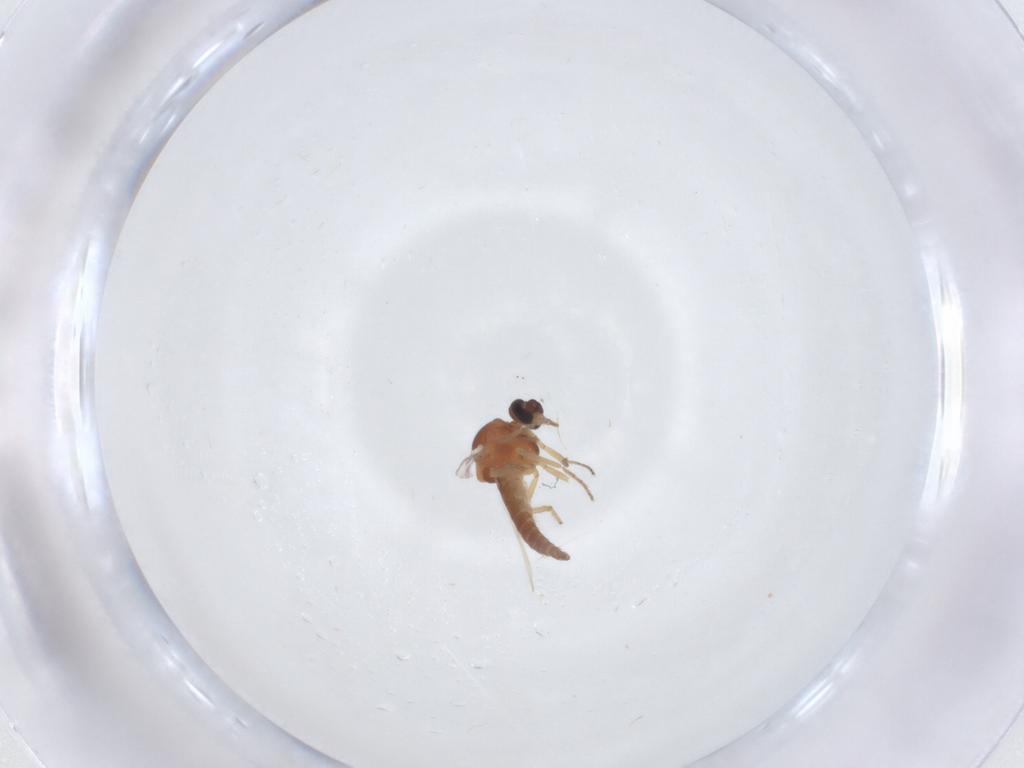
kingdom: Animalia
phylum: Arthropoda
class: Insecta
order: Diptera
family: Ceratopogonidae
